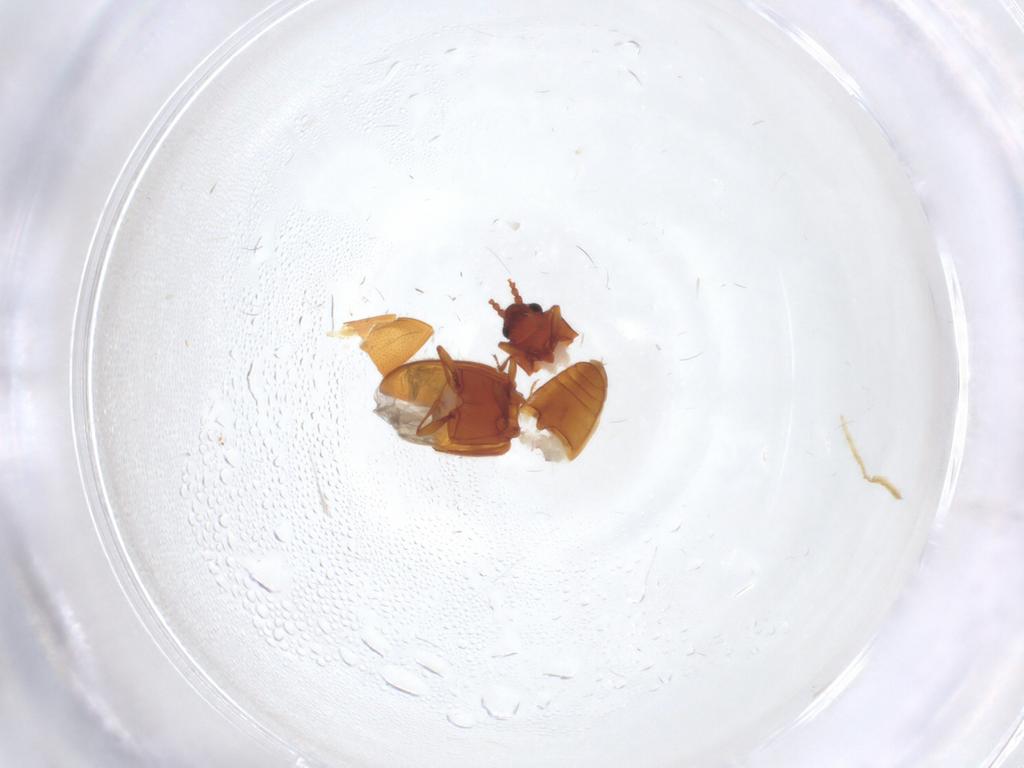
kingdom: Animalia
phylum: Arthropoda
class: Insecta
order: Coleoptera
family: Cryptophagidae
